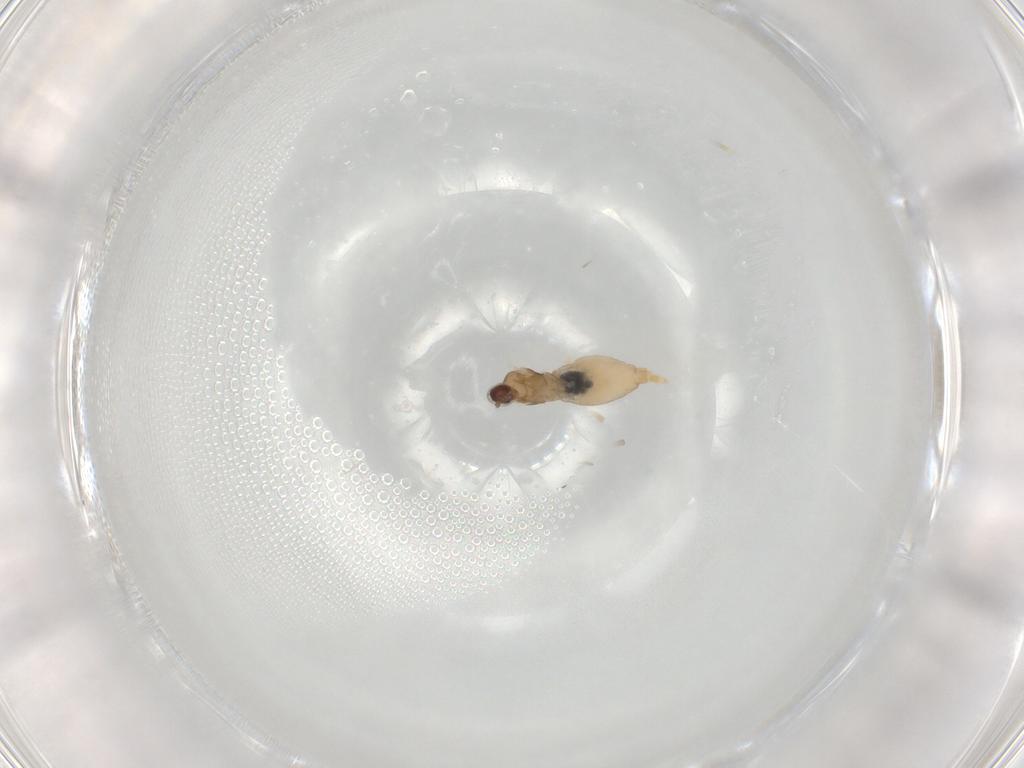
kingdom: Animalia
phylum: Arthropoda
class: Insecta
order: Diptera
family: Cecidomyiidae
